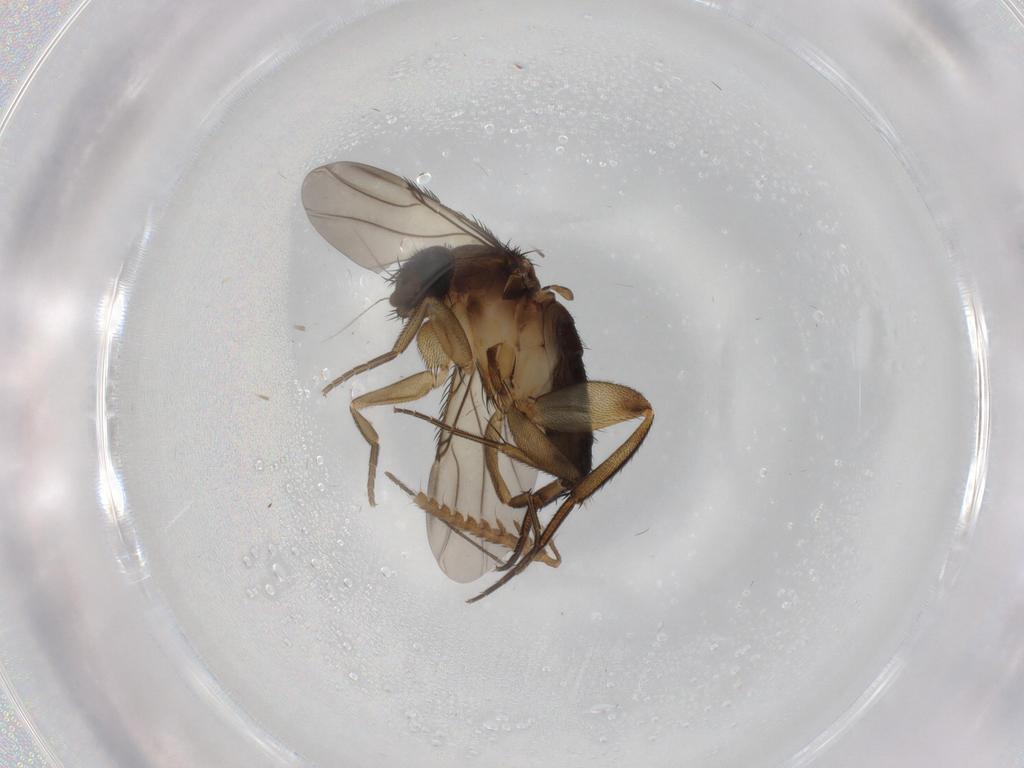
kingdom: Animalia
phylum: Arthropoda
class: Insecta
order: Diptera
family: Phoridae
